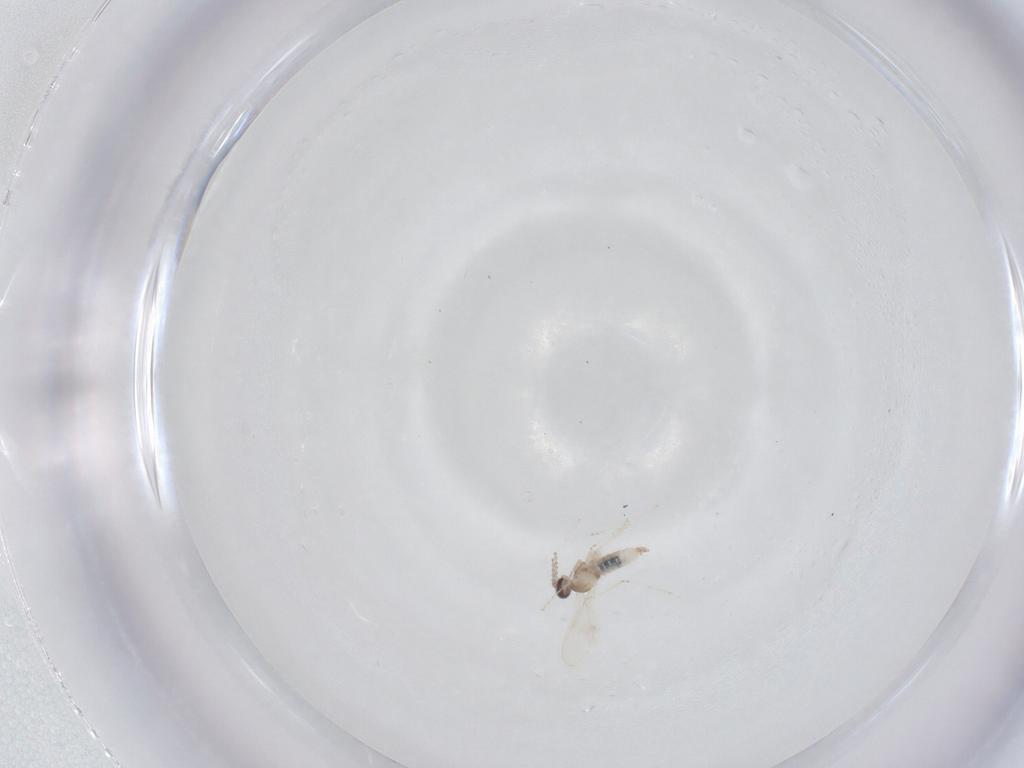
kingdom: Animalia
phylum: Arthropoda
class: Insecta
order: Diptera
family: Cecidomyiidae
